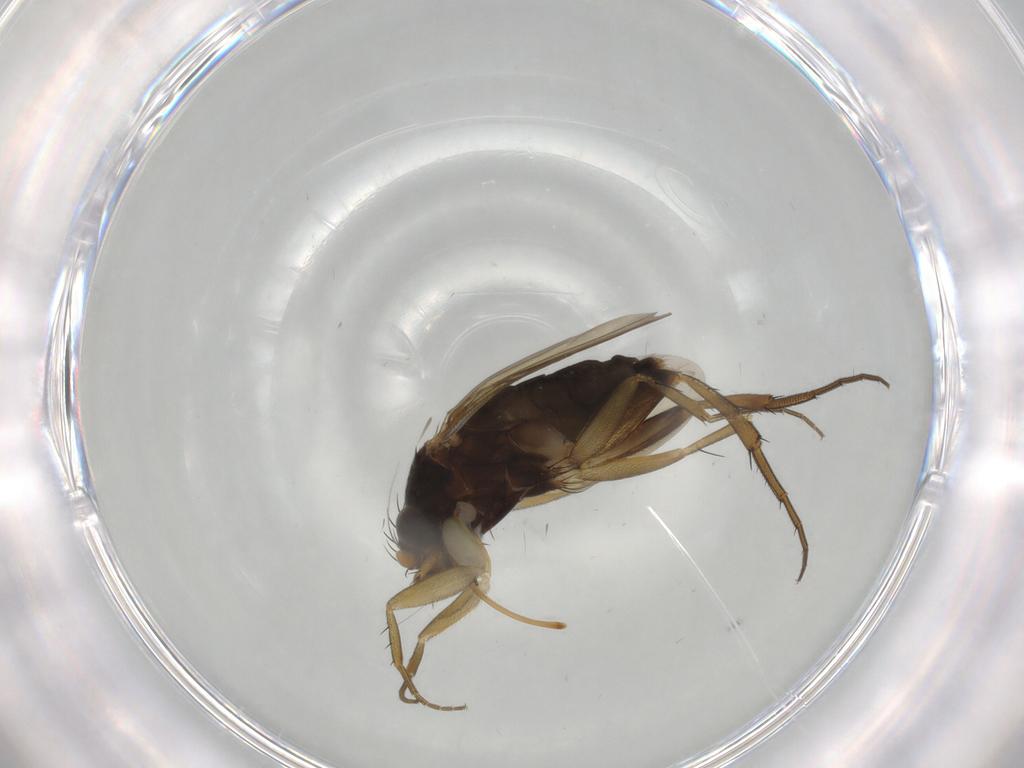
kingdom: Animalia
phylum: Arthropoda
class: Insecta
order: Diptera
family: Phoridae
